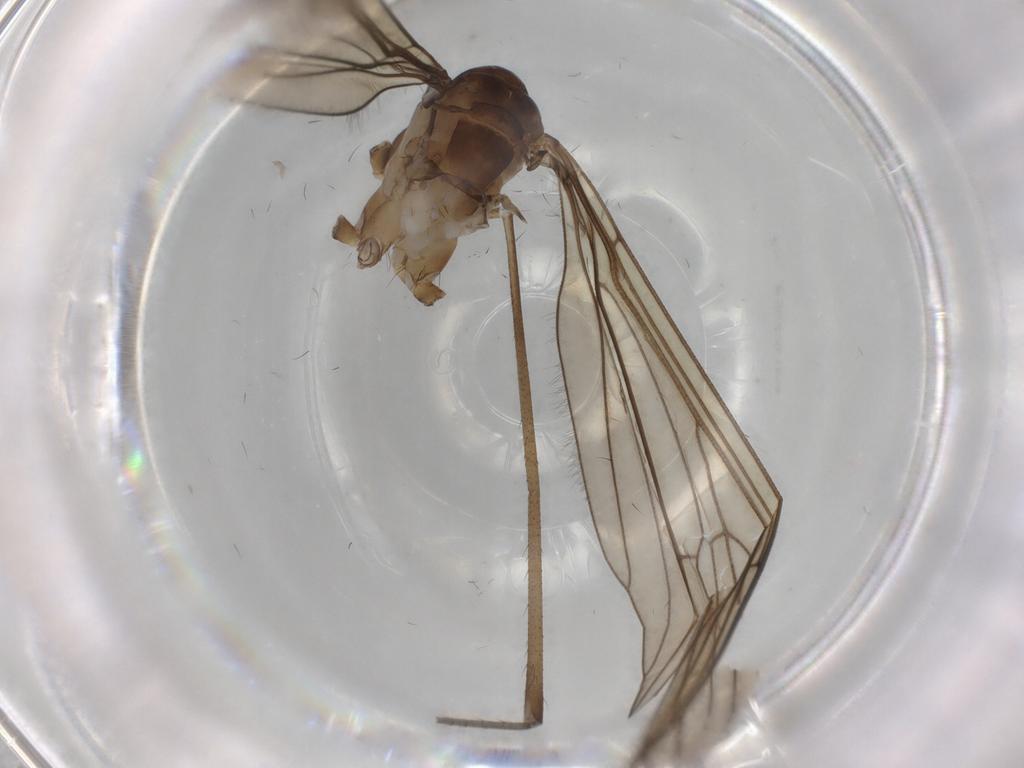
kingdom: Animalia
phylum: Arthropoda
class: Insecta
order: Diptera
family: Limoniidae
